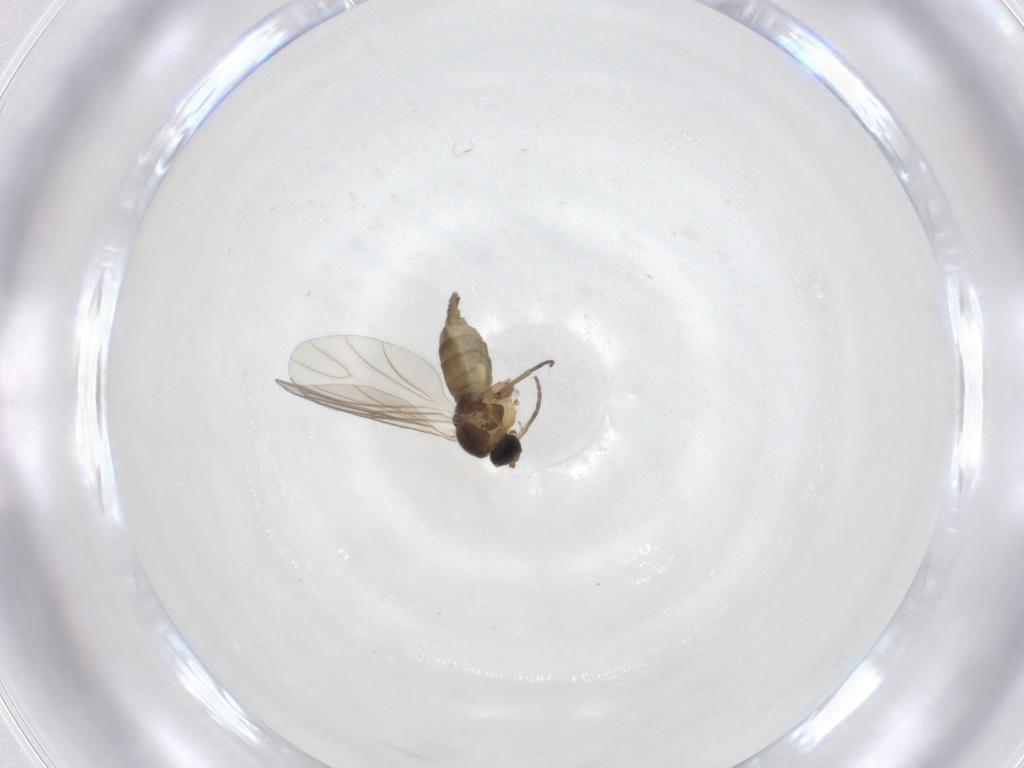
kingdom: Animalia
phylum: Arthropoda
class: Insecta
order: Diptera
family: Tachinidae
